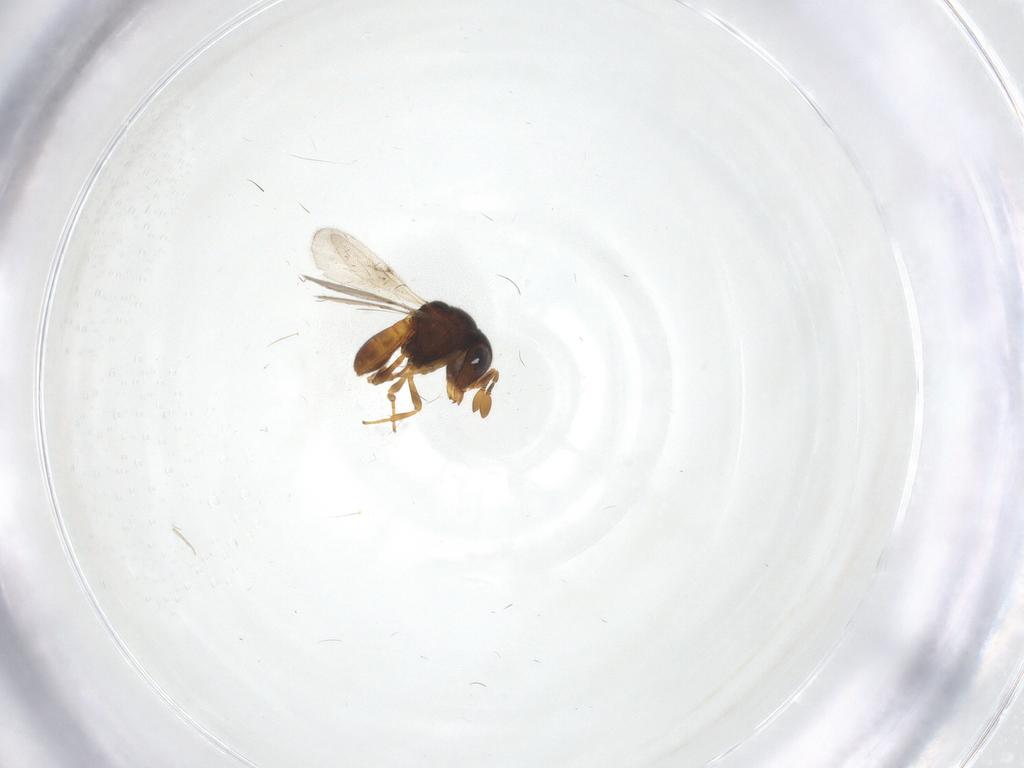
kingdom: Animalia
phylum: Arthropoda
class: Insecta
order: Hymenoptera
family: Scelionidae
